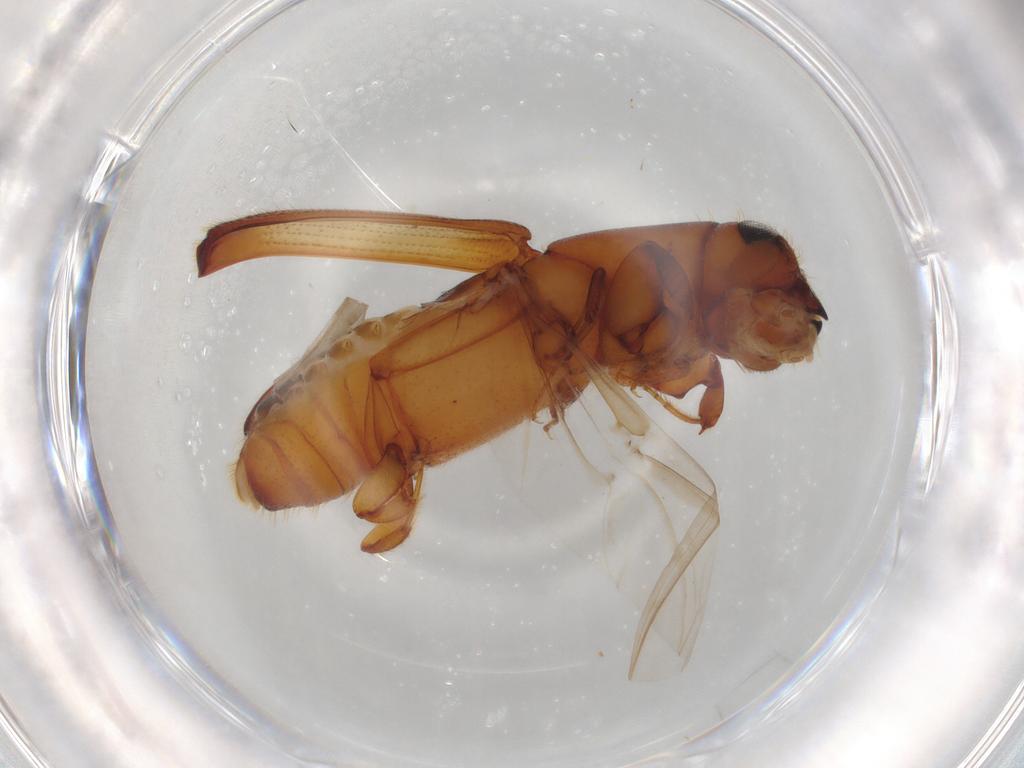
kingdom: Animalia
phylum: Arthropoda
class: Insecta
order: Coleoptera
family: Curculionidae
